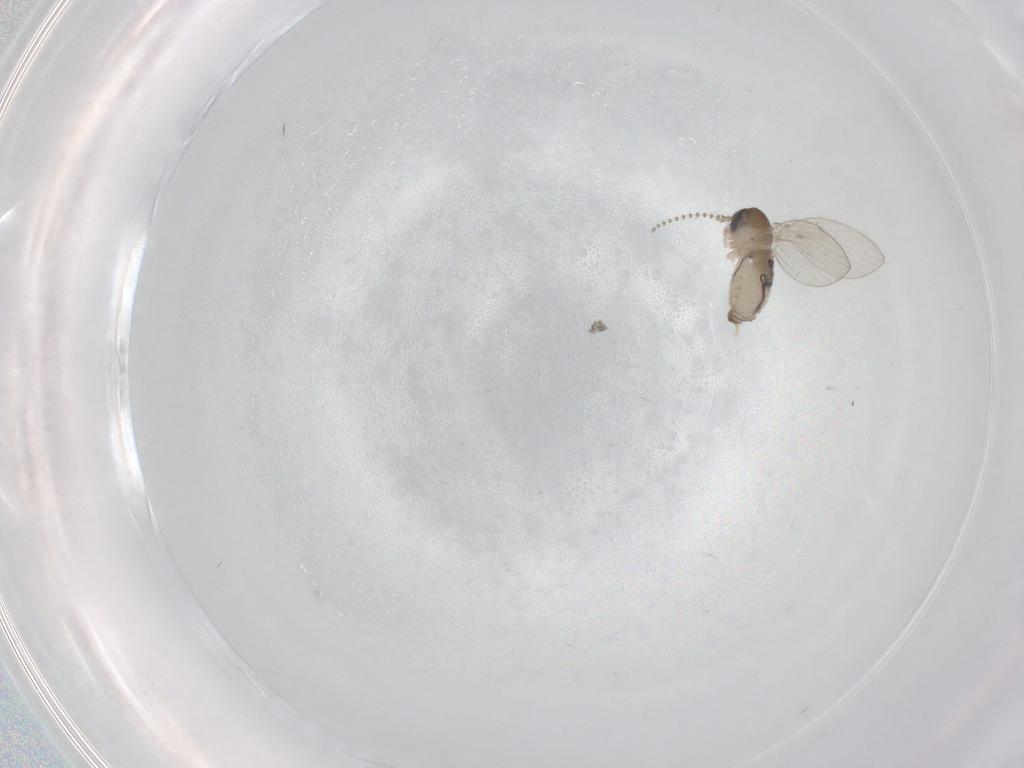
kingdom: Animalia
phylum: Arthropoda
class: Insecta
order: Diptera
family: Psychodidae
